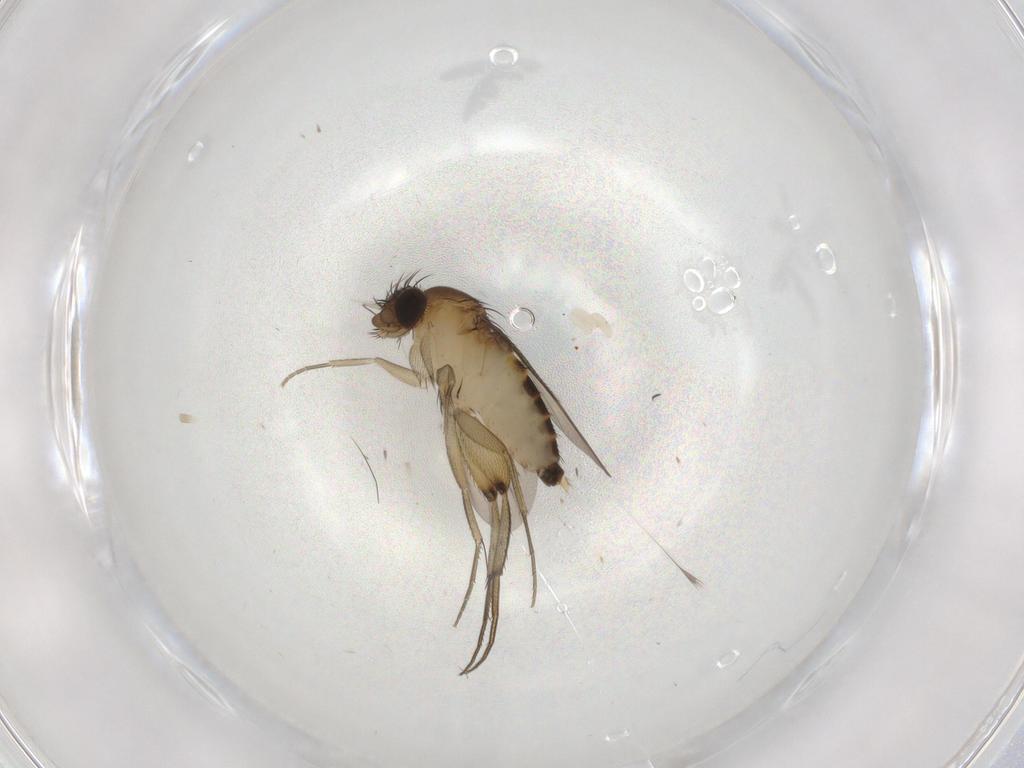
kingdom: Animalia
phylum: Arthropoda
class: Insecta
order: Diptera
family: Phoridae
